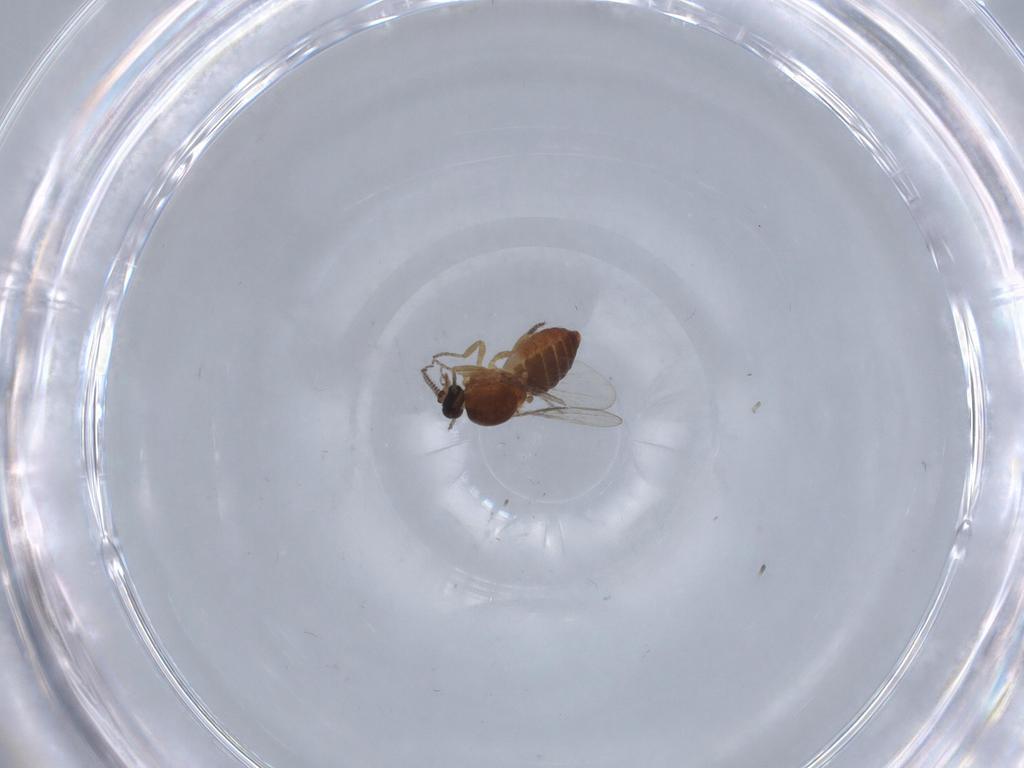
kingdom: Animalia
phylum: Arthropoda
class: Insecta
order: Diptera
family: Ceratopogonidae
